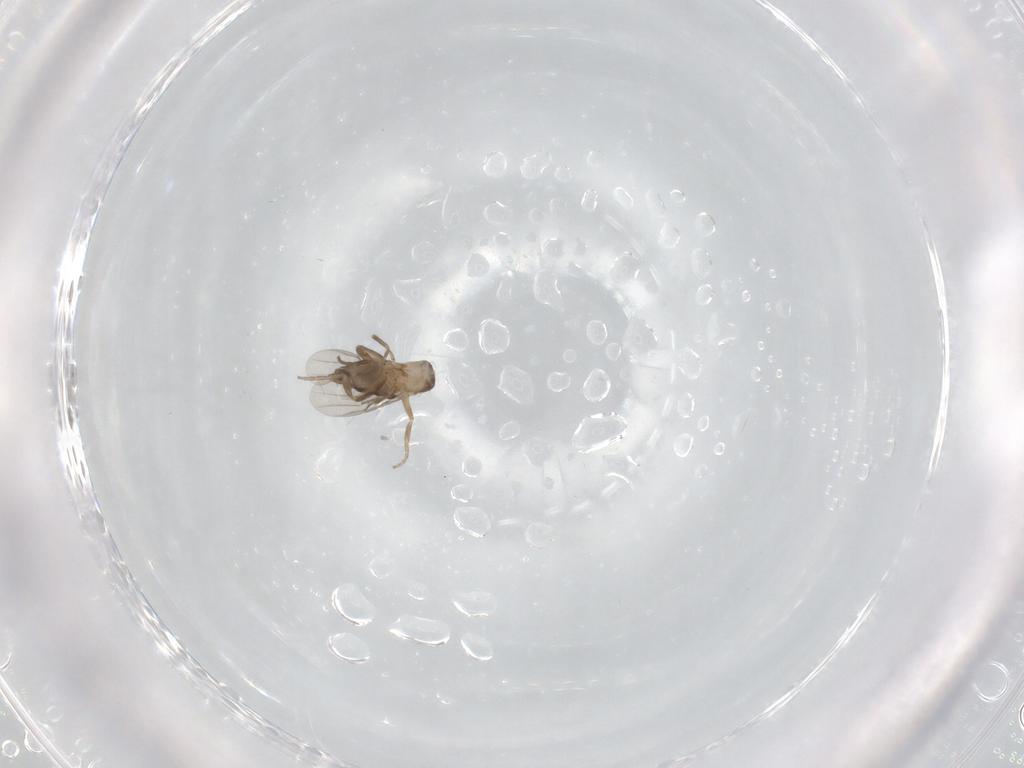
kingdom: Animalia
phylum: Arthropoda
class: Insecta
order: Diptera
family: Phoridae
